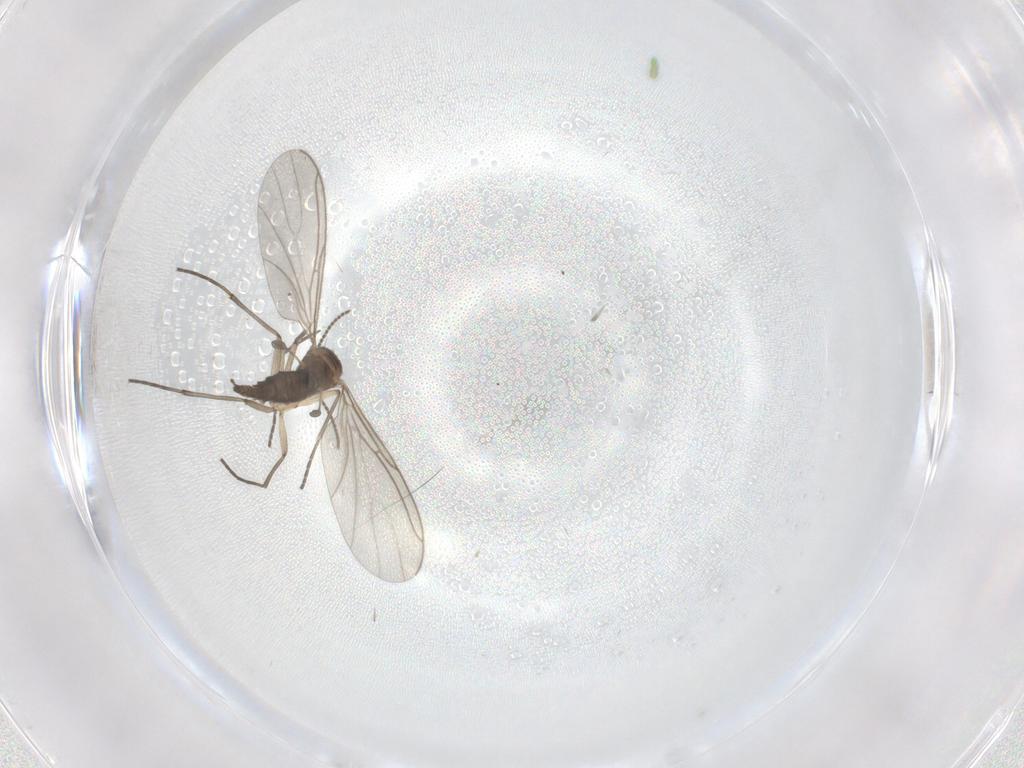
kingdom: Animalia
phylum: Arthropoda
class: Insecta
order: Diptera
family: Sciaridae
